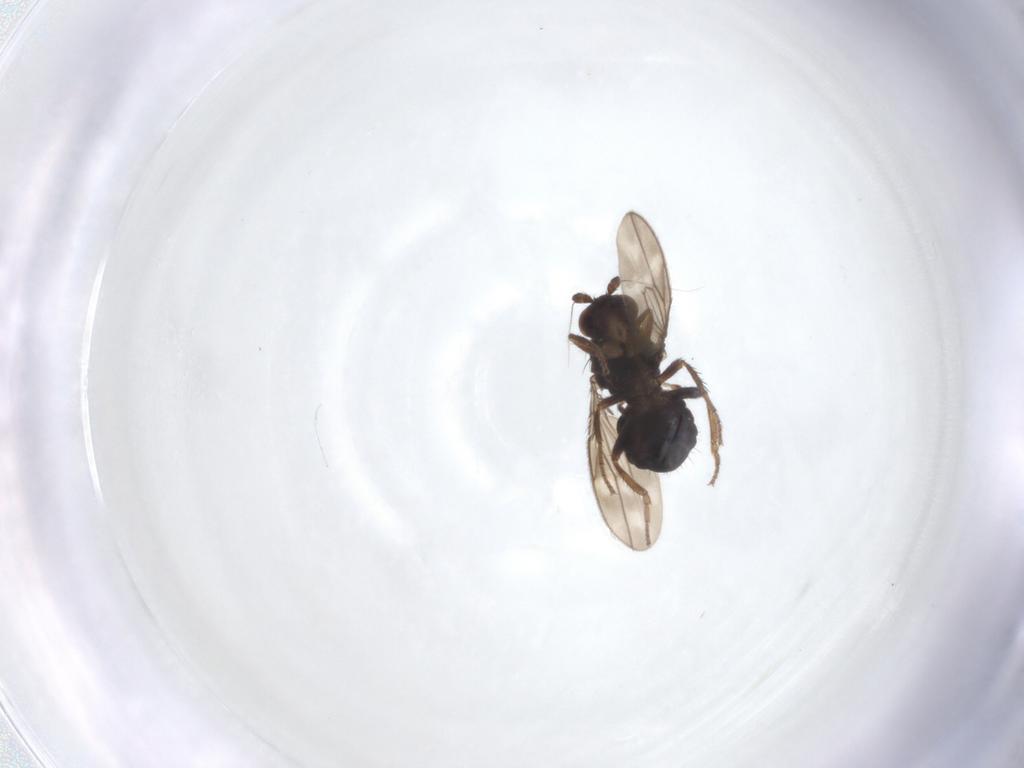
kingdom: Animalia
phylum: Arthropoda
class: Insecta
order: Diptera
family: Sphaeroceridae
